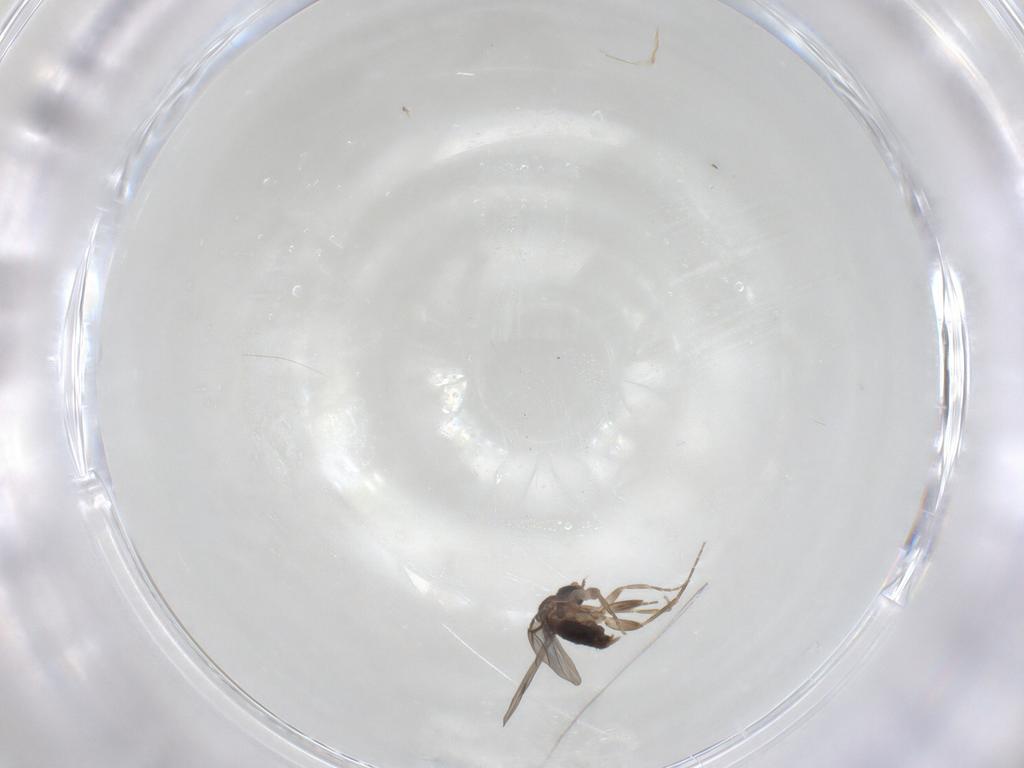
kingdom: Animalia
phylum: Arthropoda
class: Insecta
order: Diptera
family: Phoridae
